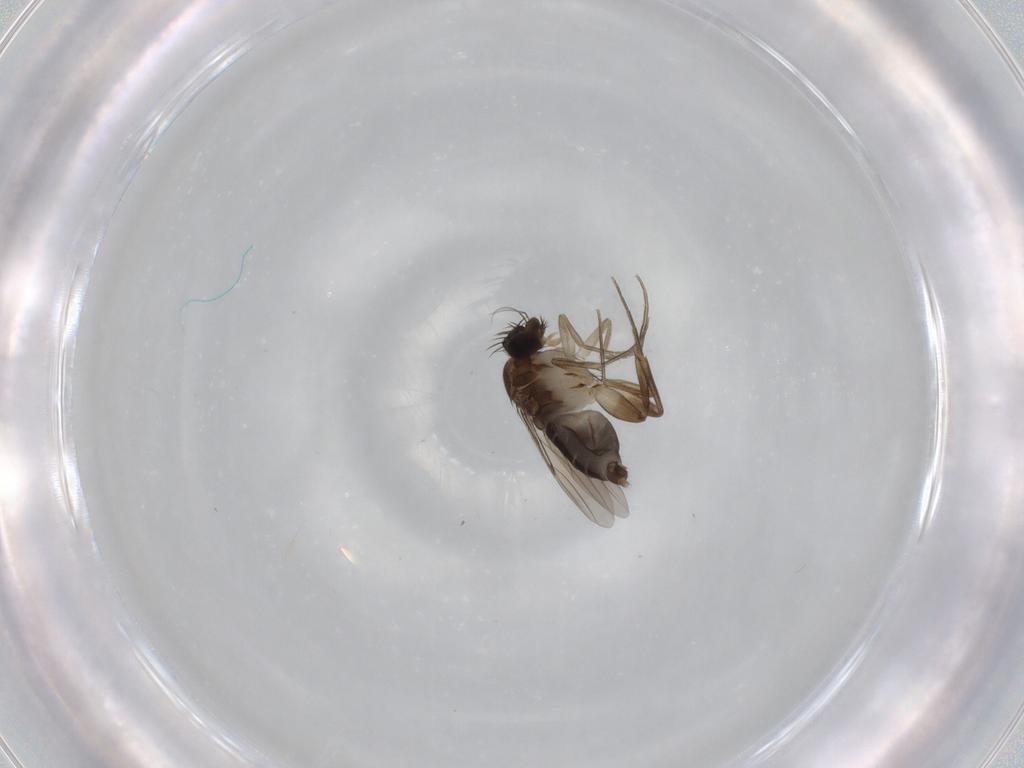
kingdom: Animalia
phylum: Arthropoda
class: Insecta
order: Diptera
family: Phoridae
